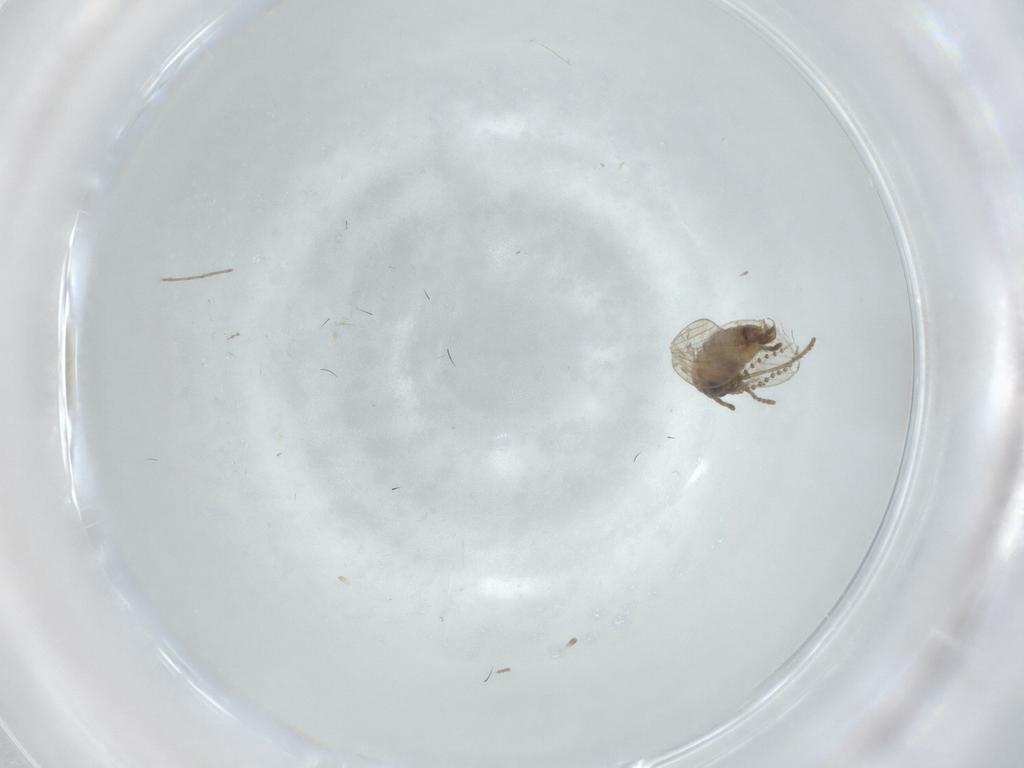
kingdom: Animalia
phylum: Arthropoda
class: Insecta
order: Diptera
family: Psychodidae
